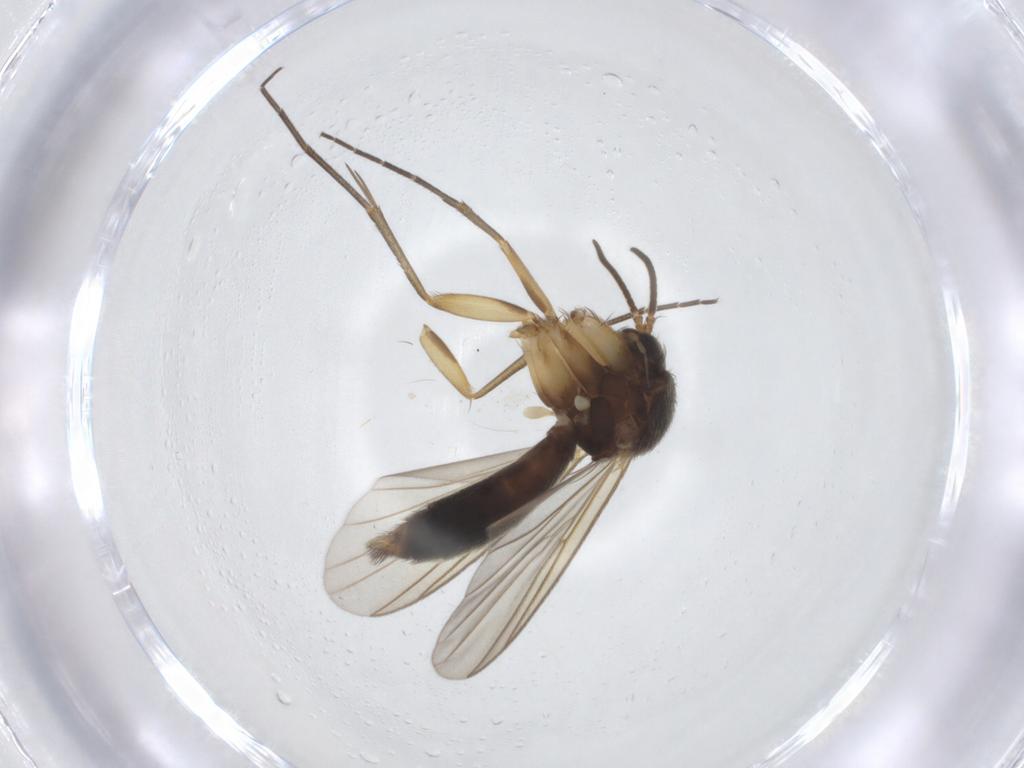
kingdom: Animalia
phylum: Arthropoda
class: Insecta
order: Diptera
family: Mycetophilidae
